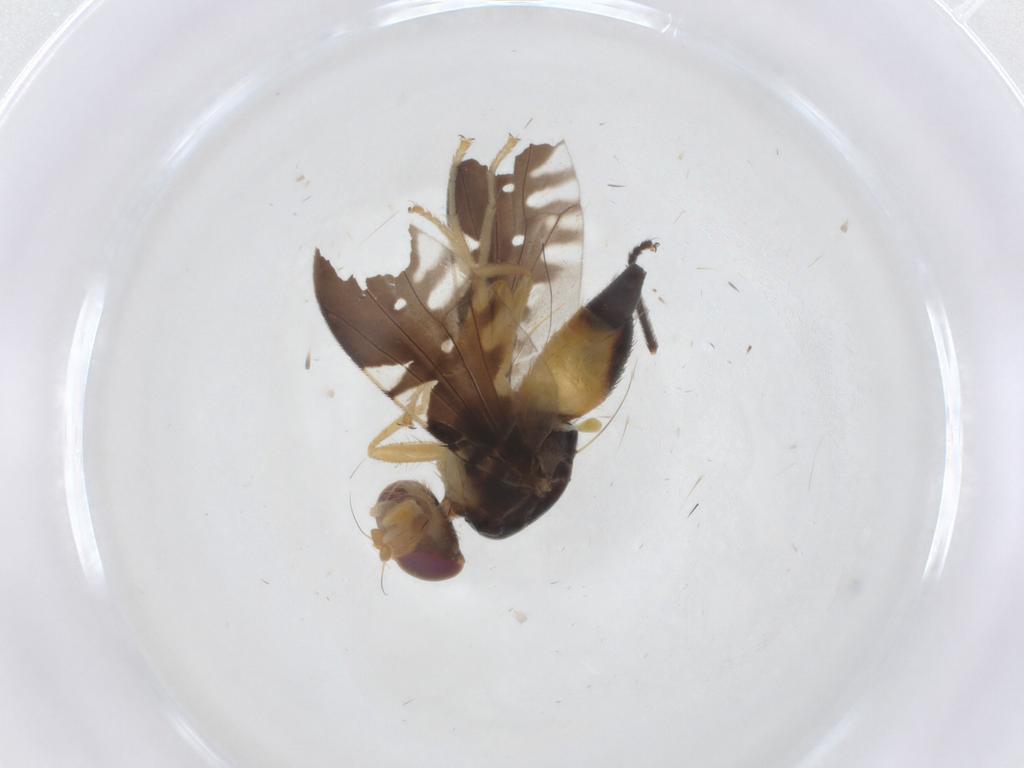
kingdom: Animalia
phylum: Arthropoda
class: Insecta
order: Diptera
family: Tephritidae
